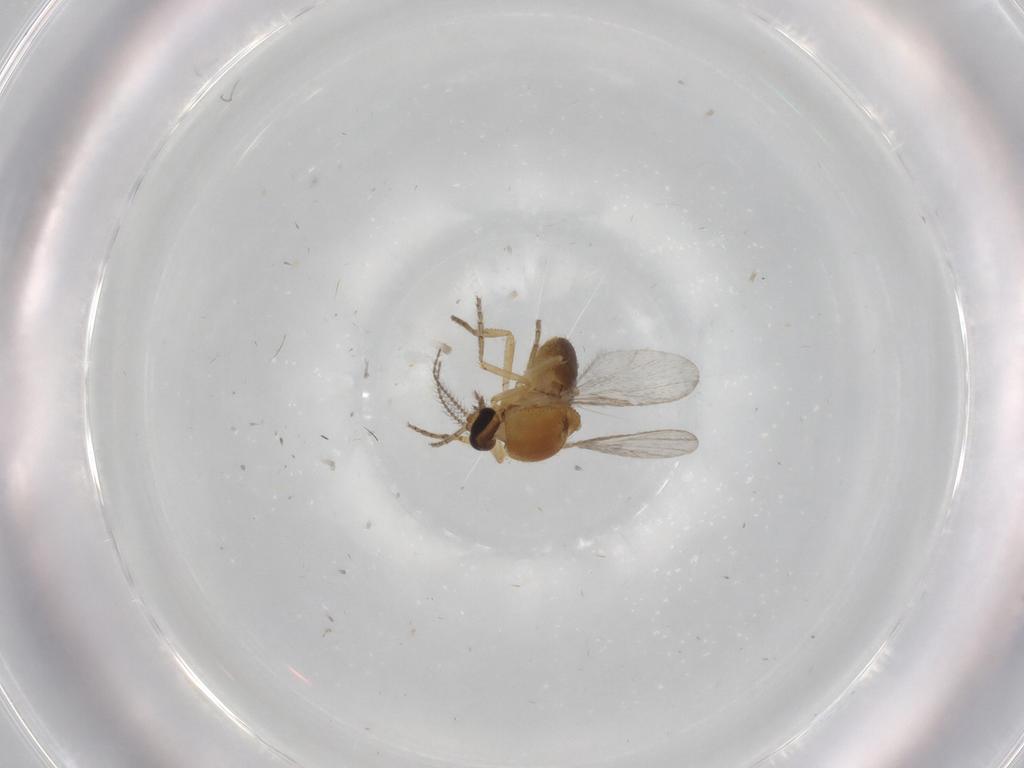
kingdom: Animalia
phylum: Arthropoda
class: Insecta
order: Diptera
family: Ceratopogonidae
